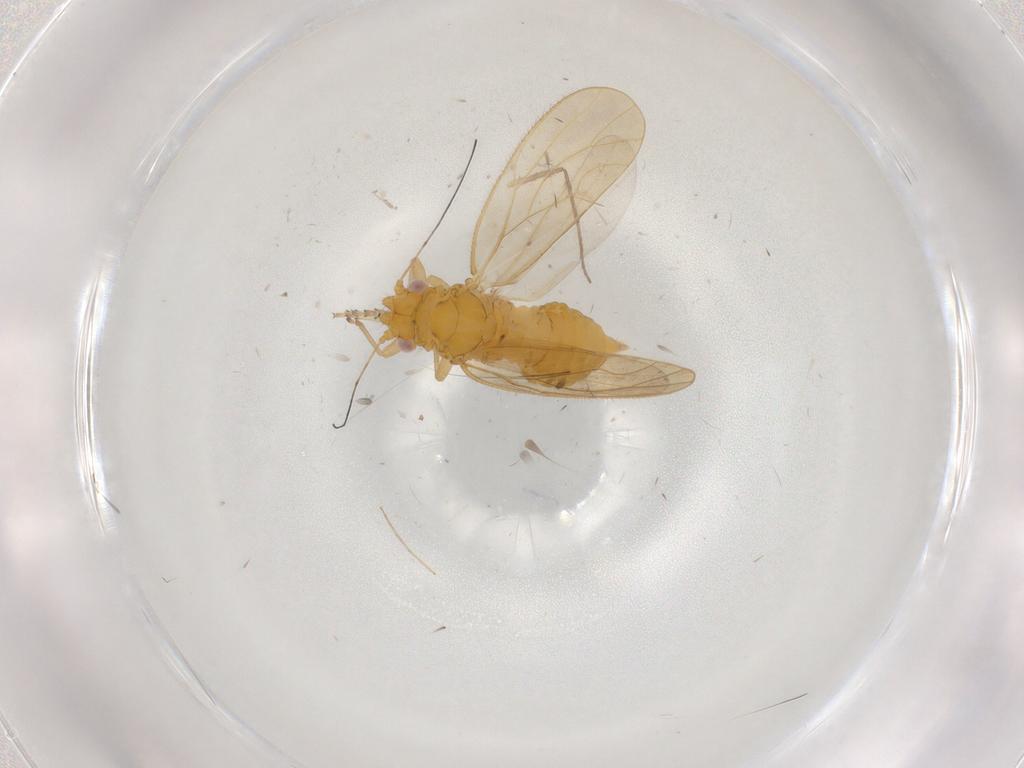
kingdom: Animalia
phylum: Arthropoda
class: Insecta
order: Hemiptera
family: Psyllidae
